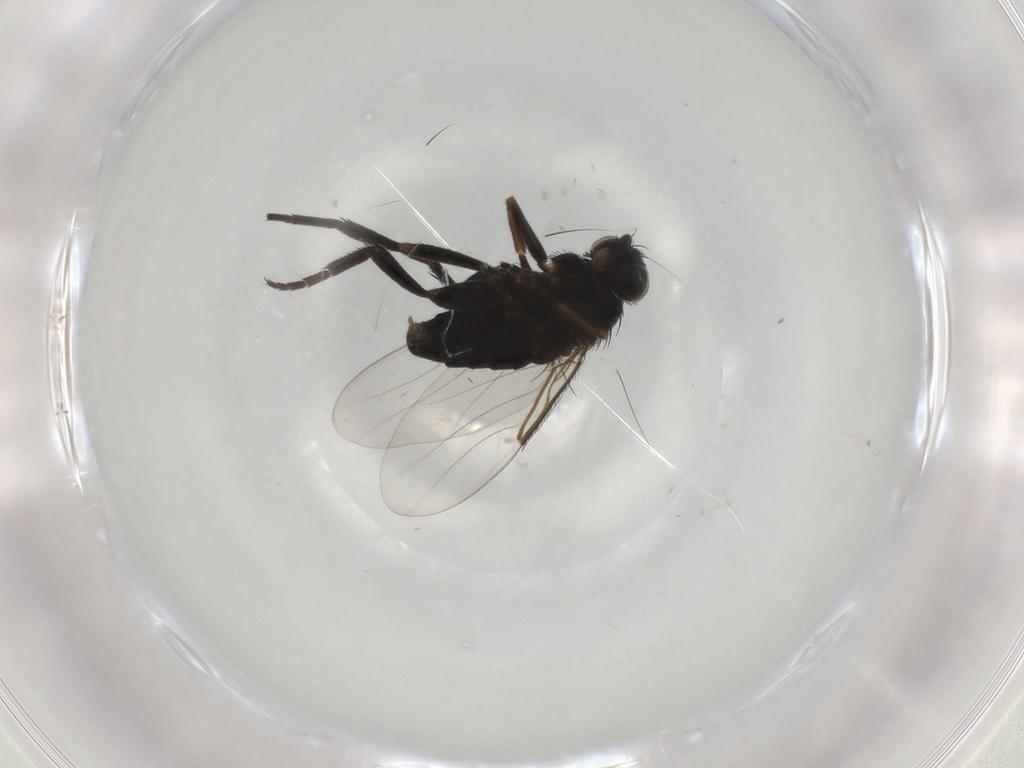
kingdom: Animalia
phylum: Arthropoda
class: Insecta
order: Diptera
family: Phoridae
